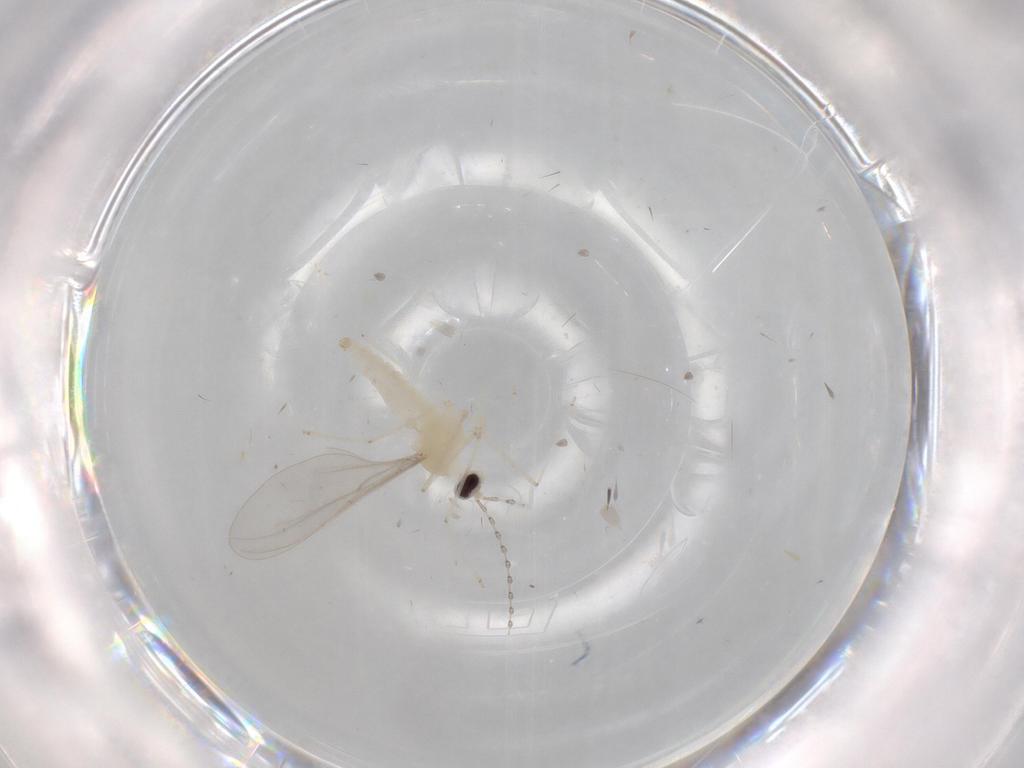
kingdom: Animalia
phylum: Arthropoda
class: Insecta
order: Diptera
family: Cecidomyiidae
